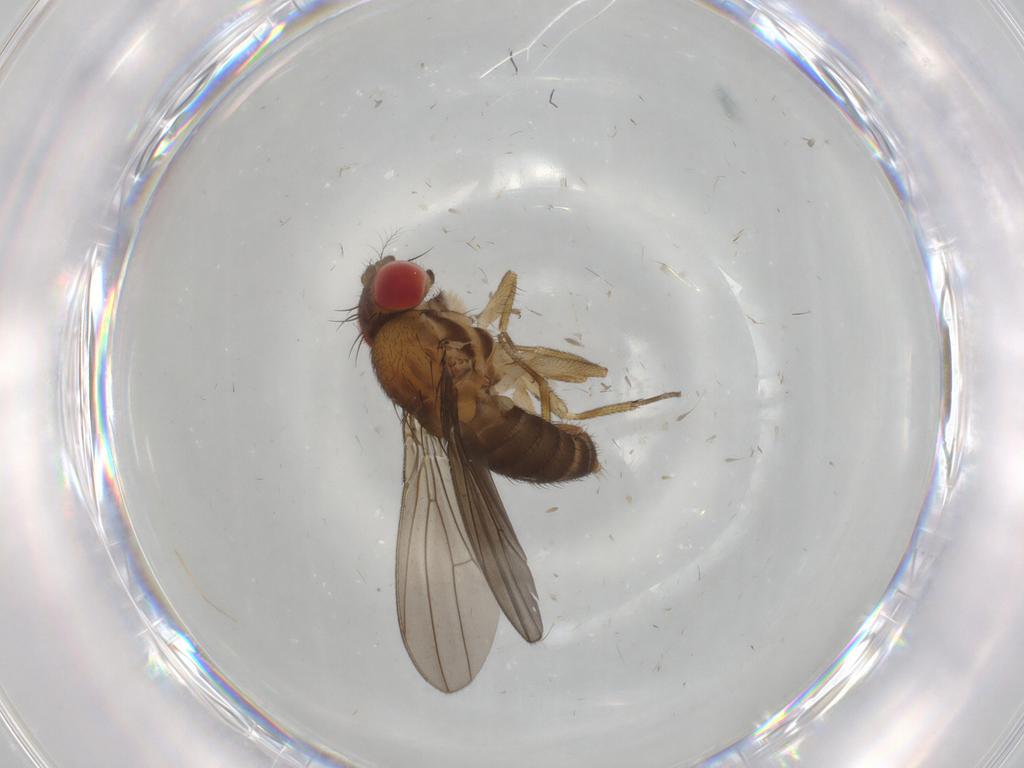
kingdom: Animalia
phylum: Arthropoda
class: Insecta
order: Diptera
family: Drosophilidae
